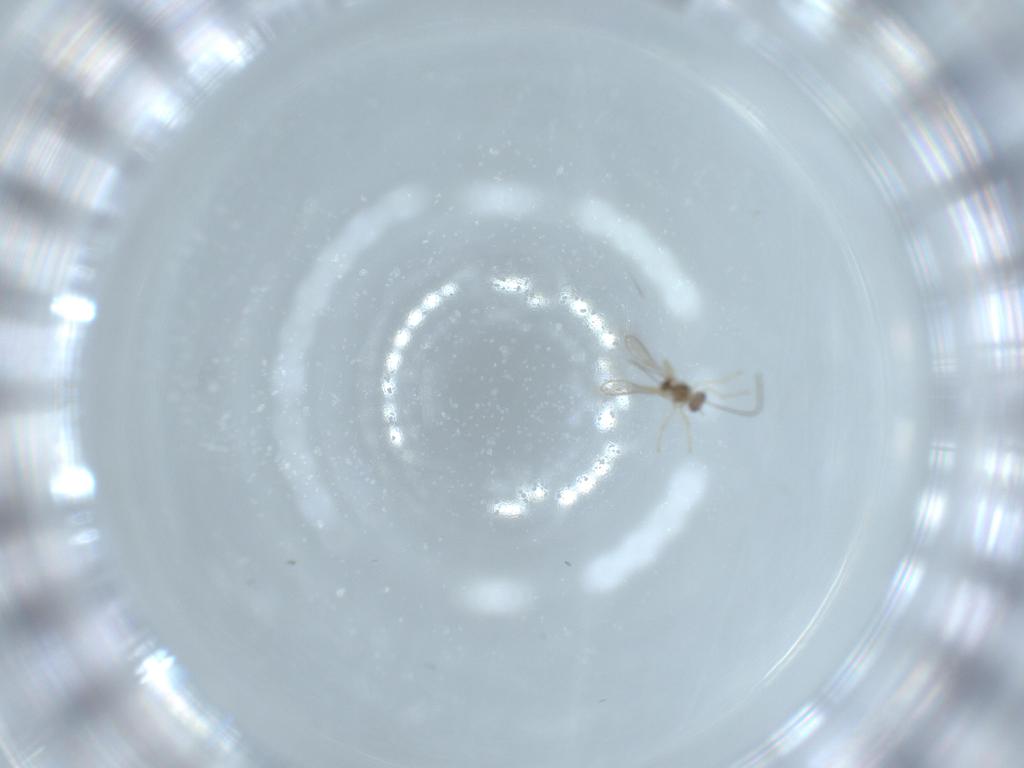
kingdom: Animalia
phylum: Arthropoda
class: Insecta
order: Hymenoptera
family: Mymaridae
